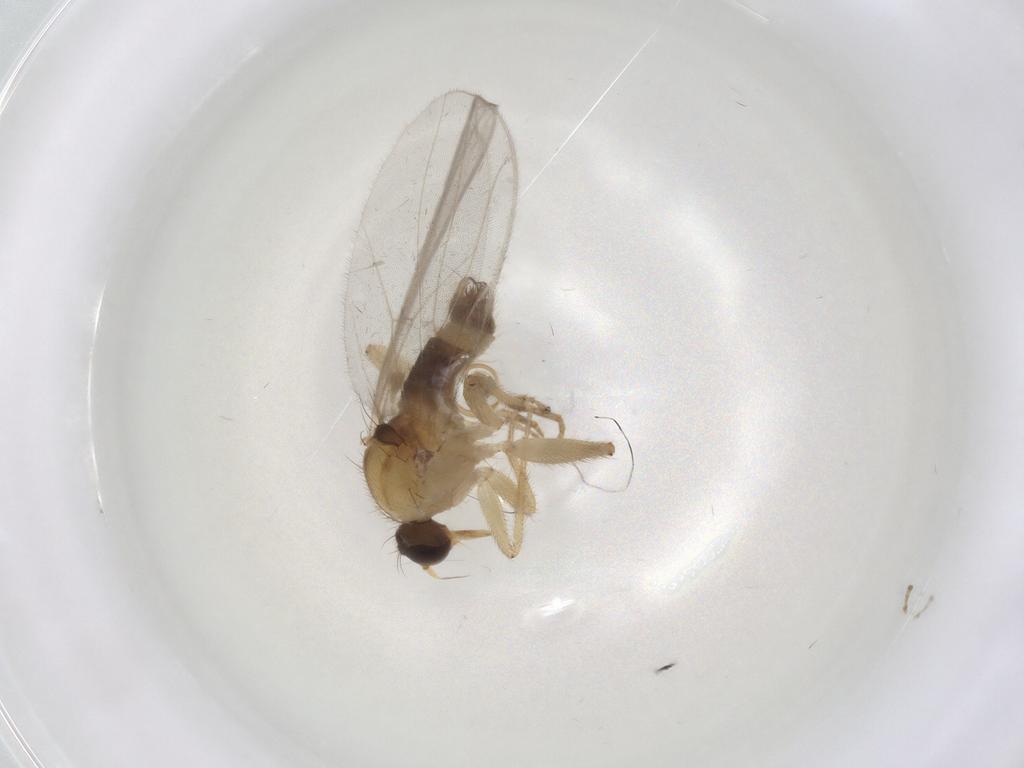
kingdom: Animalia
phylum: Arthropoda
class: Insecta
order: Diptera
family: Hybotidae
